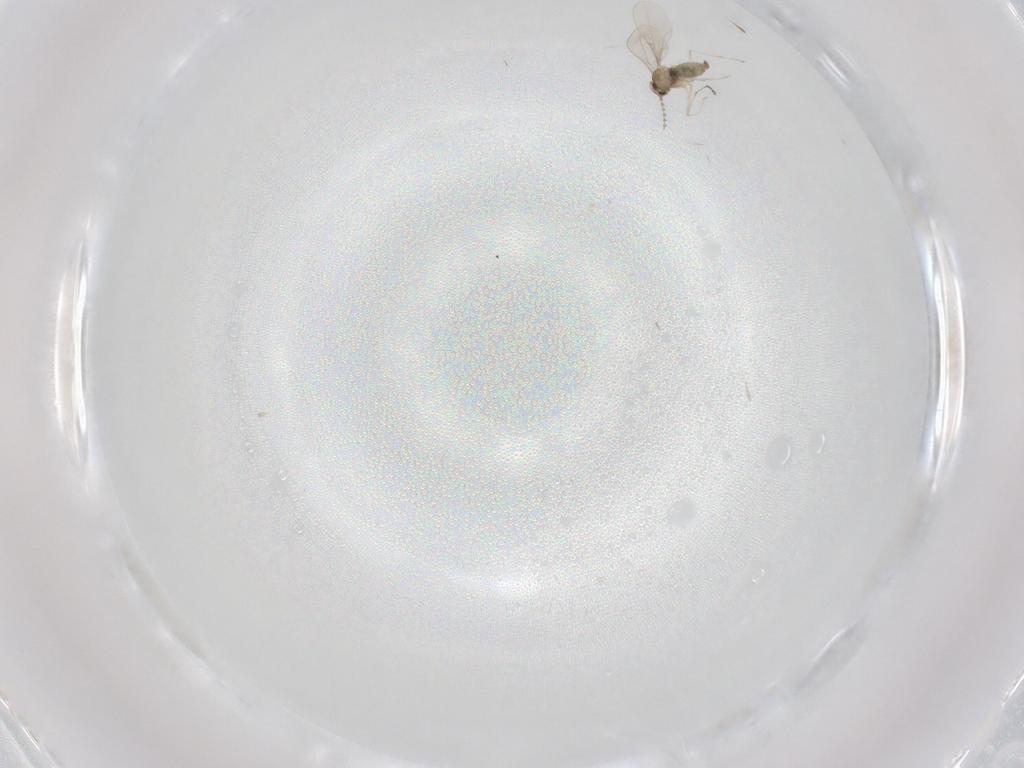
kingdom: Animalia
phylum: Arthropoda
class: Insecta
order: Diptera
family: Cecidomyiidae
